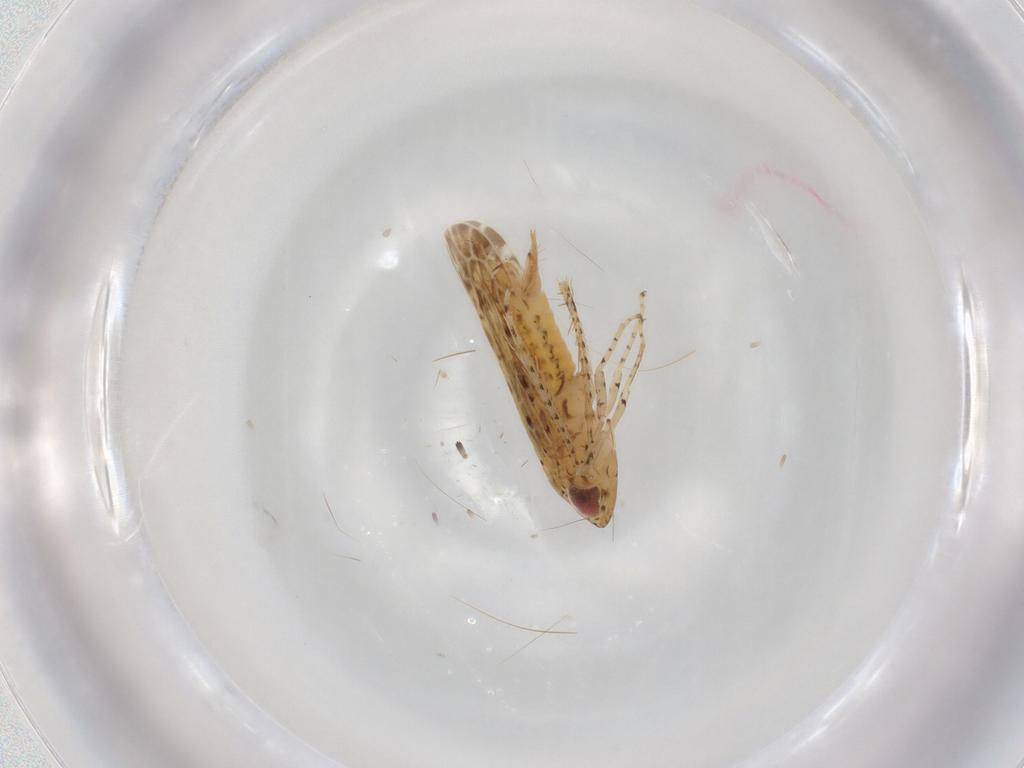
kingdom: Animalia
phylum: Arthropoda
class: Insecta
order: Hemiptera
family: Cicadellidae
